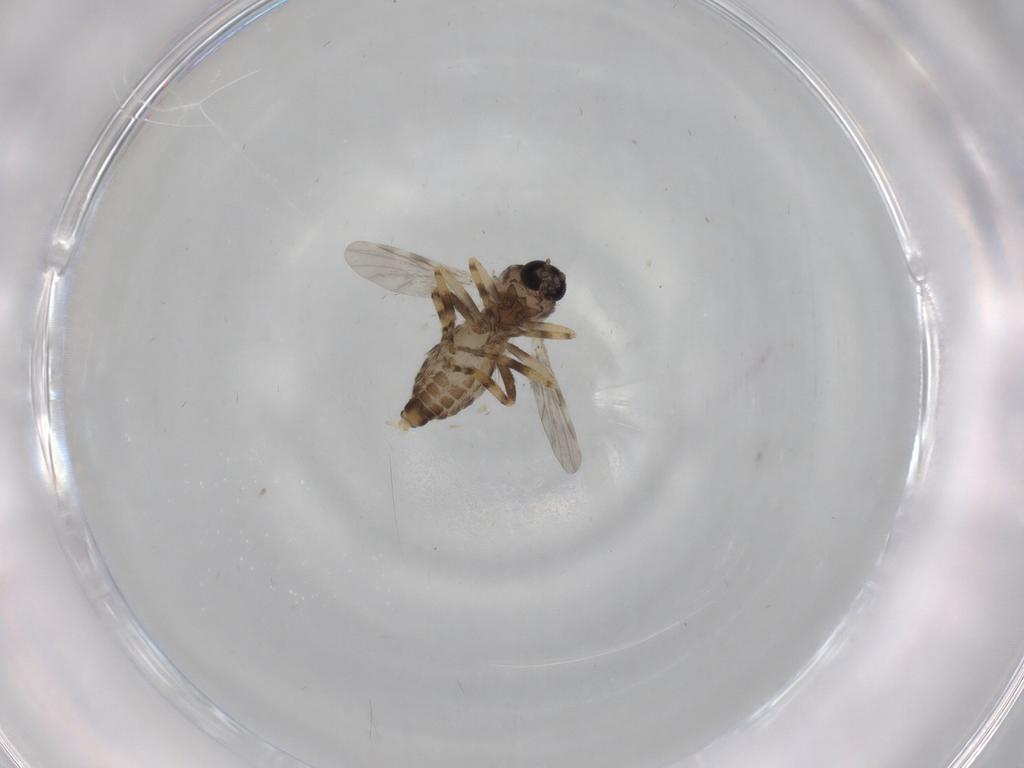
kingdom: Animalia
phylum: Arthropoda
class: Insecta
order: Diptera
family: Ceratopogonidae
